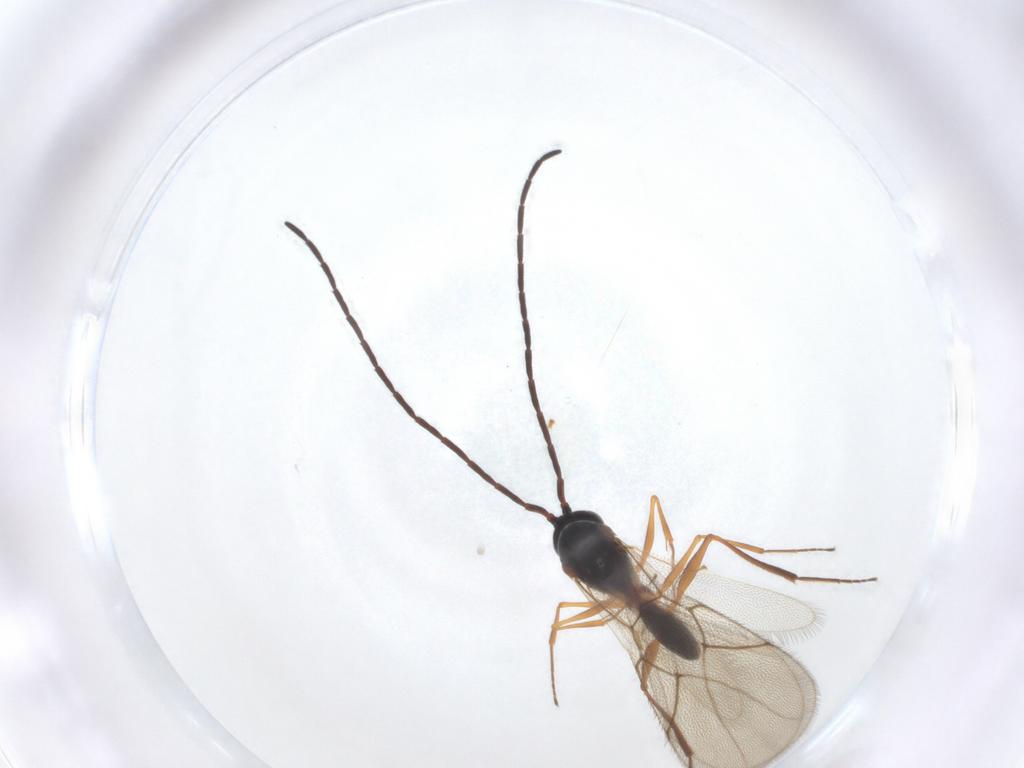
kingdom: Animalia
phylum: Arthropoda
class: Insecta
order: Hymenoptera
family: Figitidae
